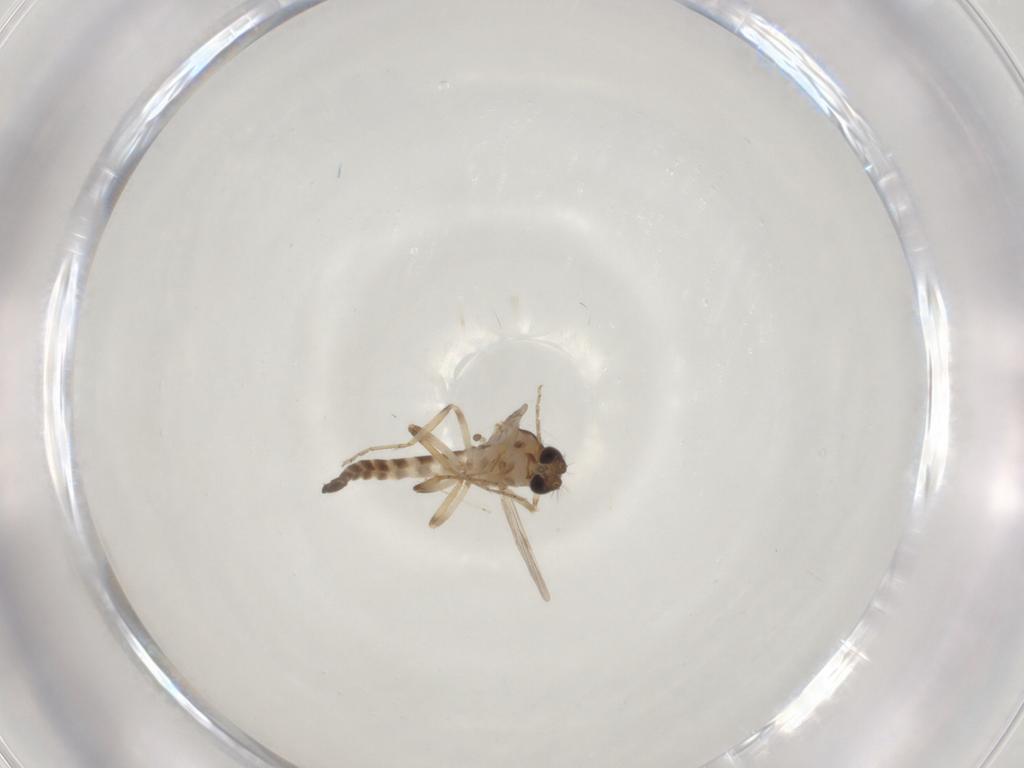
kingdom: Animalia
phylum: Arthropoda
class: Insecta
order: Diptera
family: Ceratopogonidae
